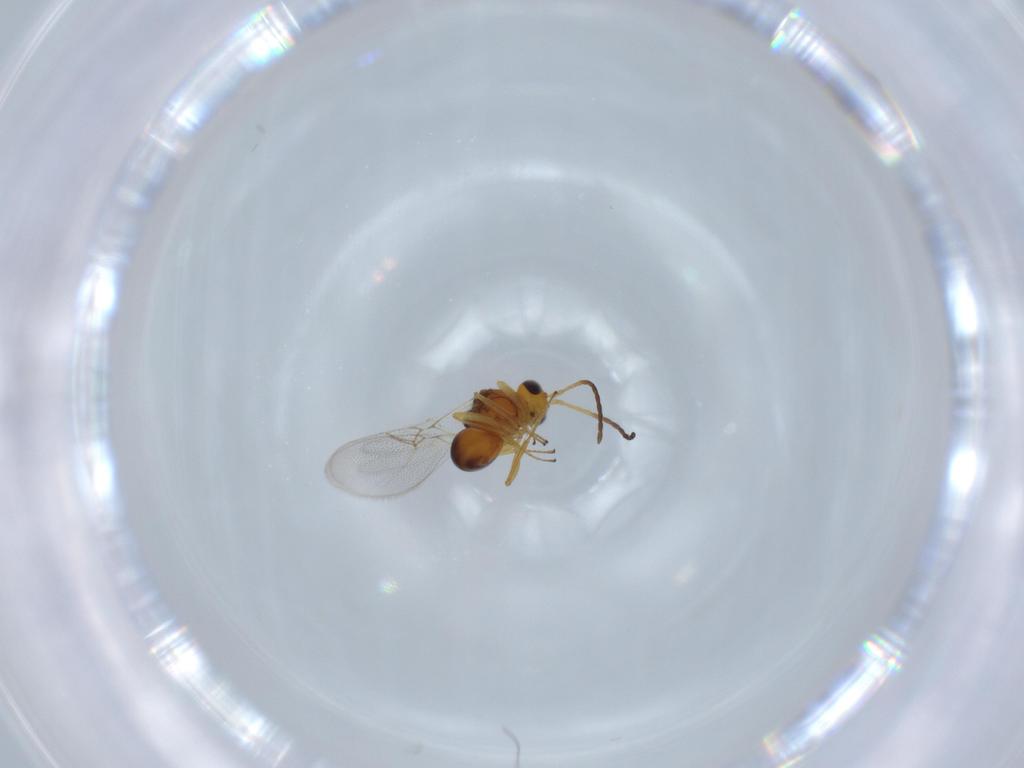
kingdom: Animalia
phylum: Arthropoda
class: Insecta
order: Hymenoptera
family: Figitidae
